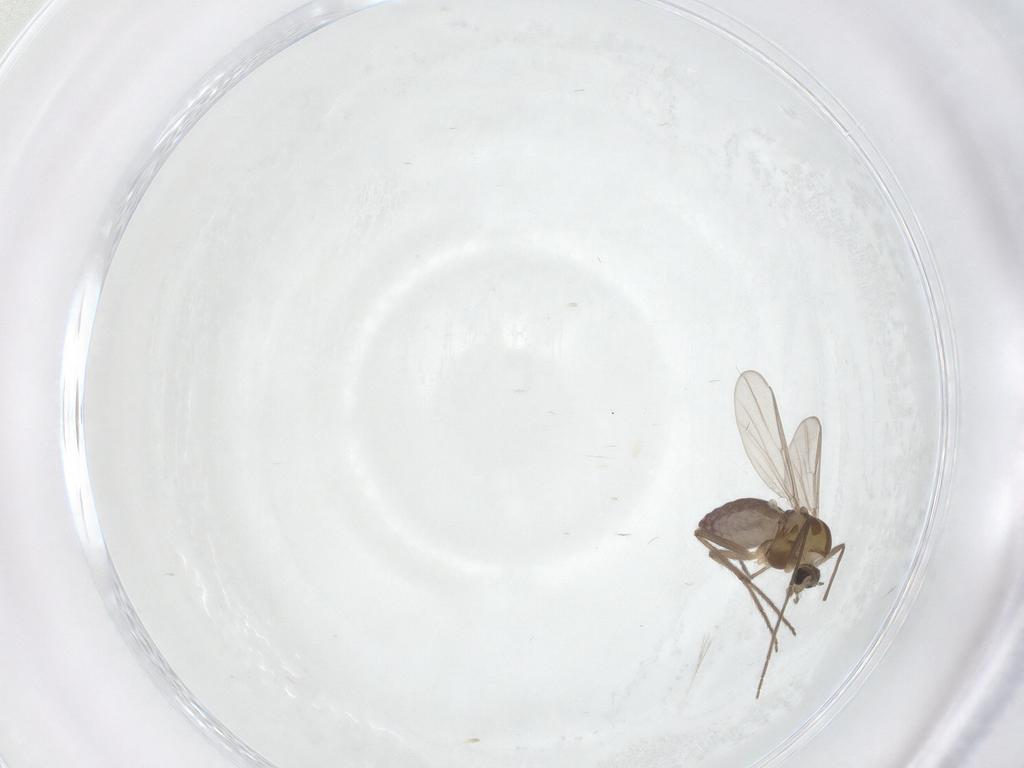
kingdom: Animalia
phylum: Arthropoda
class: Insecta
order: Diptera
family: Chironomidae
